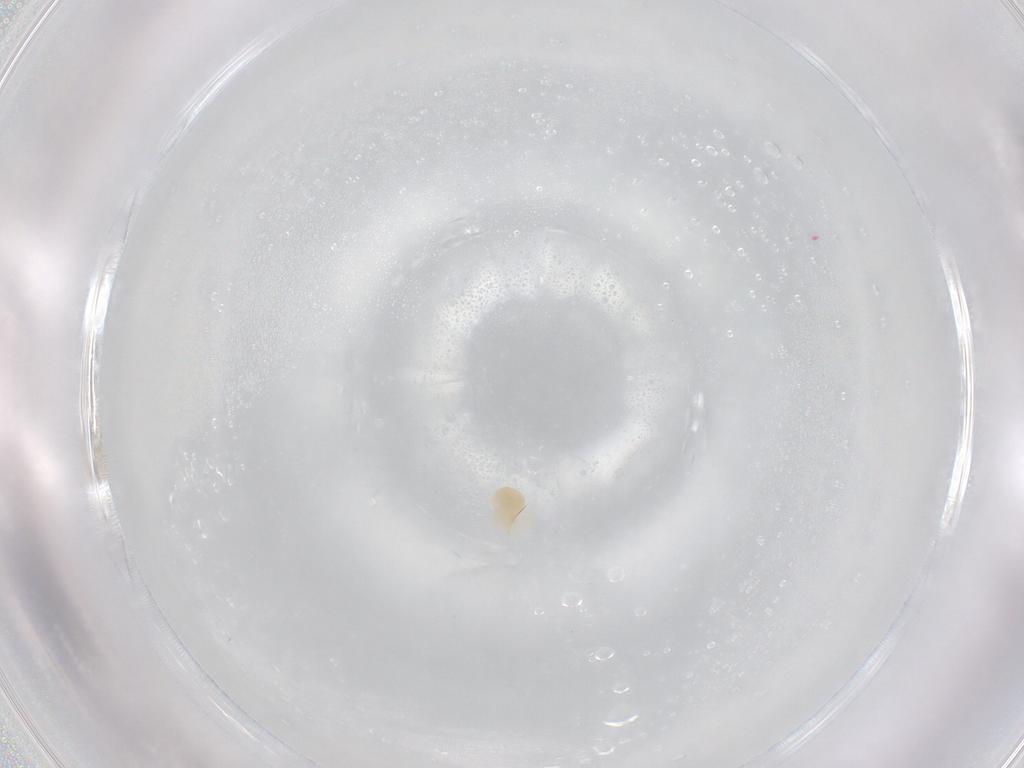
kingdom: Animalia
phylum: Arthropoda
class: Arachnida
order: Trombidiformes
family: Anystidae
